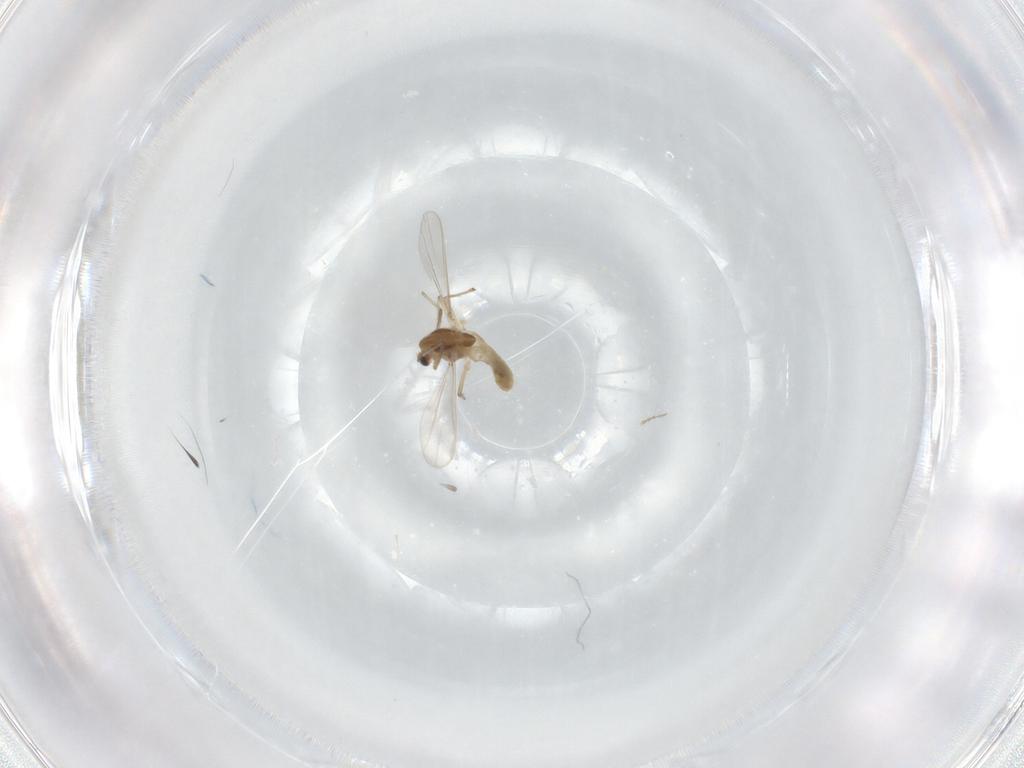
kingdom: Animalia
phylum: Arthropoda
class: Insecta
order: Diptera
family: Chironomidae
